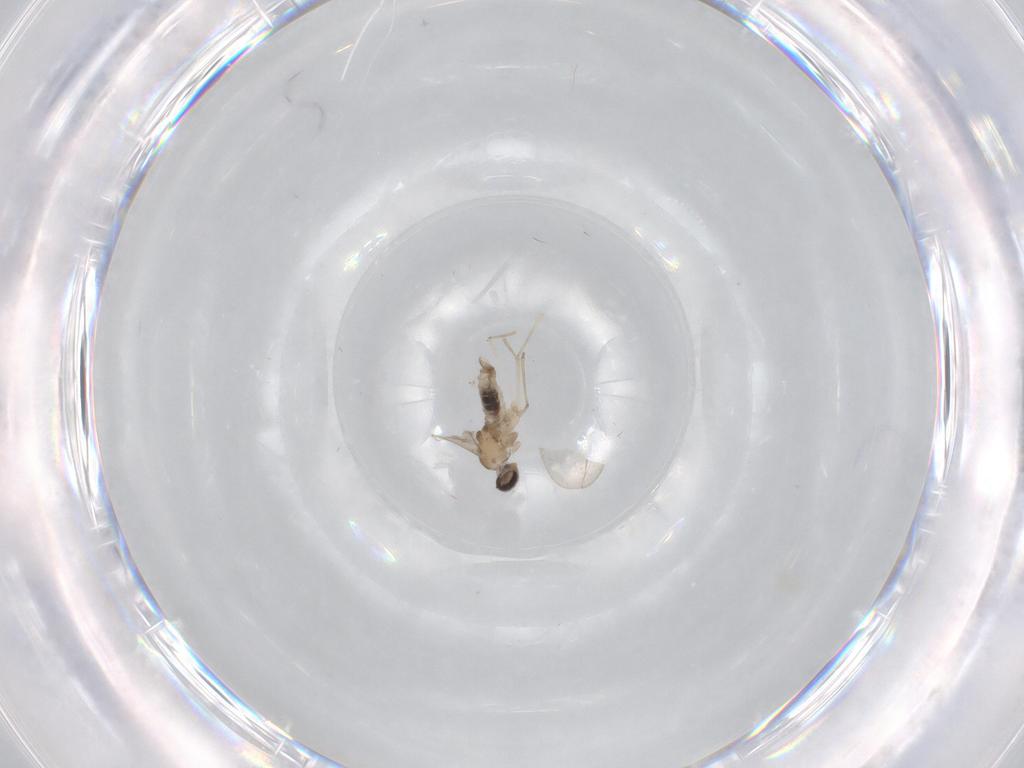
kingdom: Animalia
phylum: Arthropoda
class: Insecta
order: Diptera
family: Cecidomyiidae
